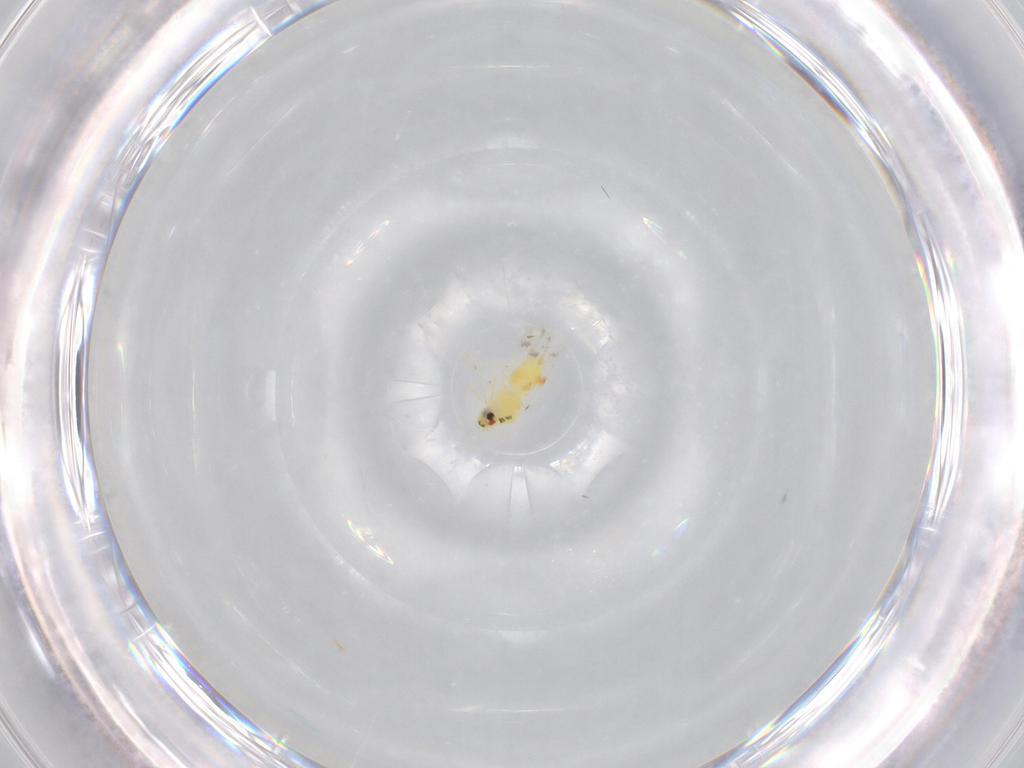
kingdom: Animalia
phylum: Arthropoda
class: Insecta
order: Hemiptera
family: Aleyrodidae
